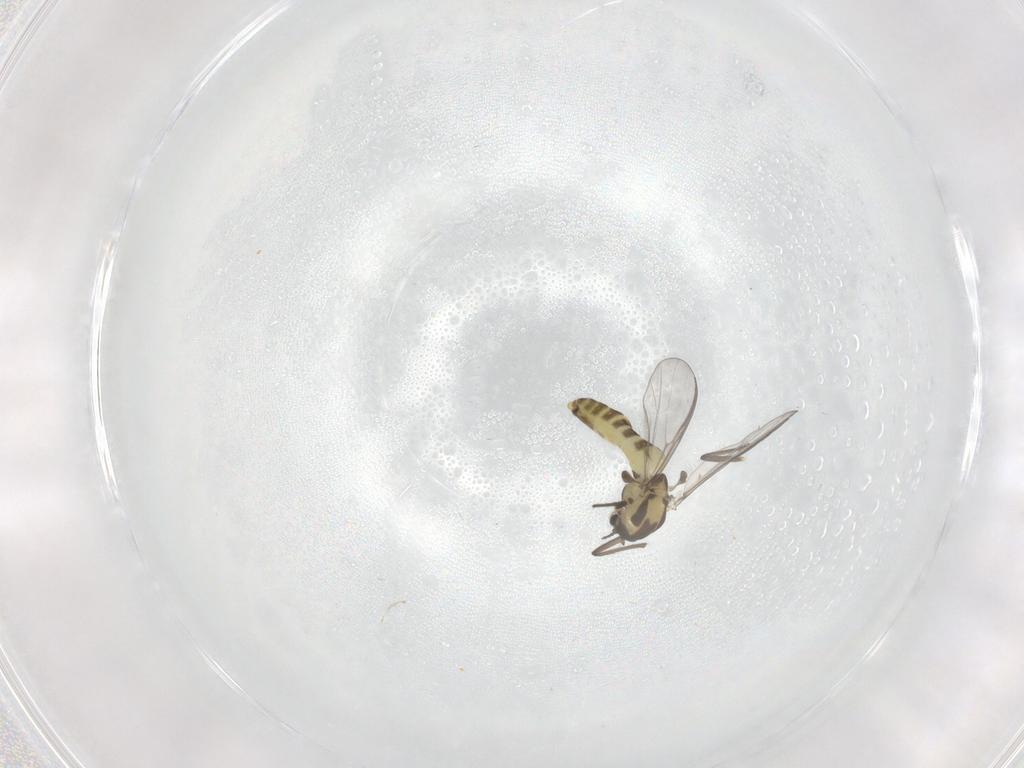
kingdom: Animalia
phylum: Arthropoda
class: Insecta
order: Diptera
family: Chironomidae
